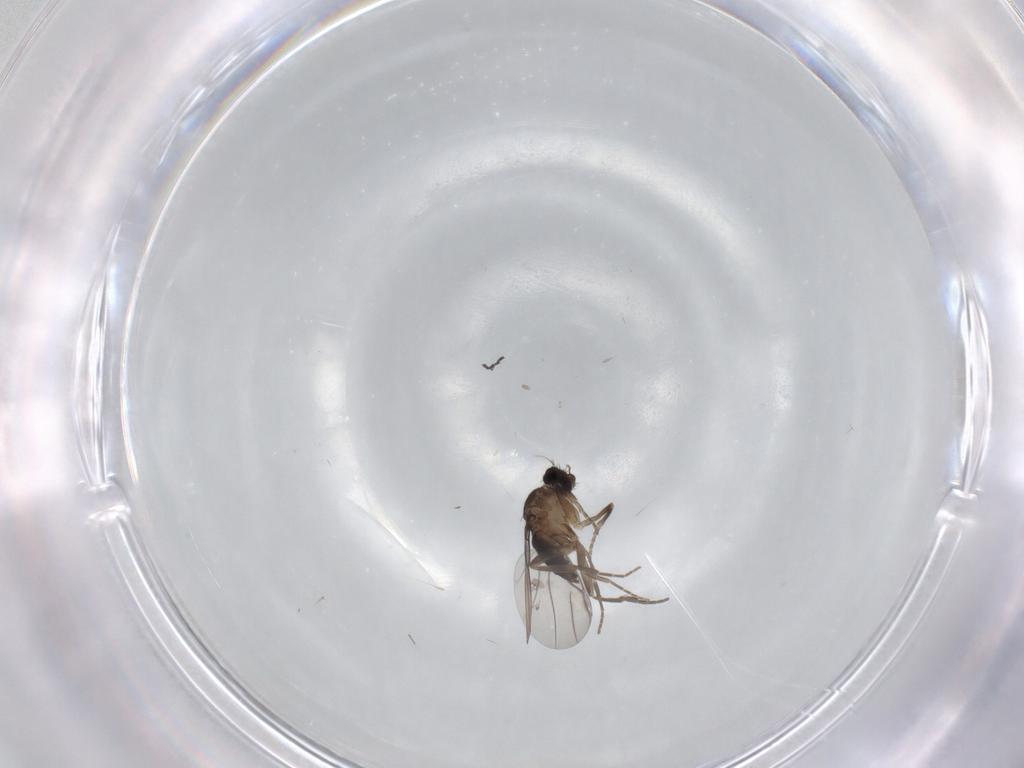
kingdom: Animalia
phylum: Arthropoda
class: Insecta
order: Diptera
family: Phoridae
